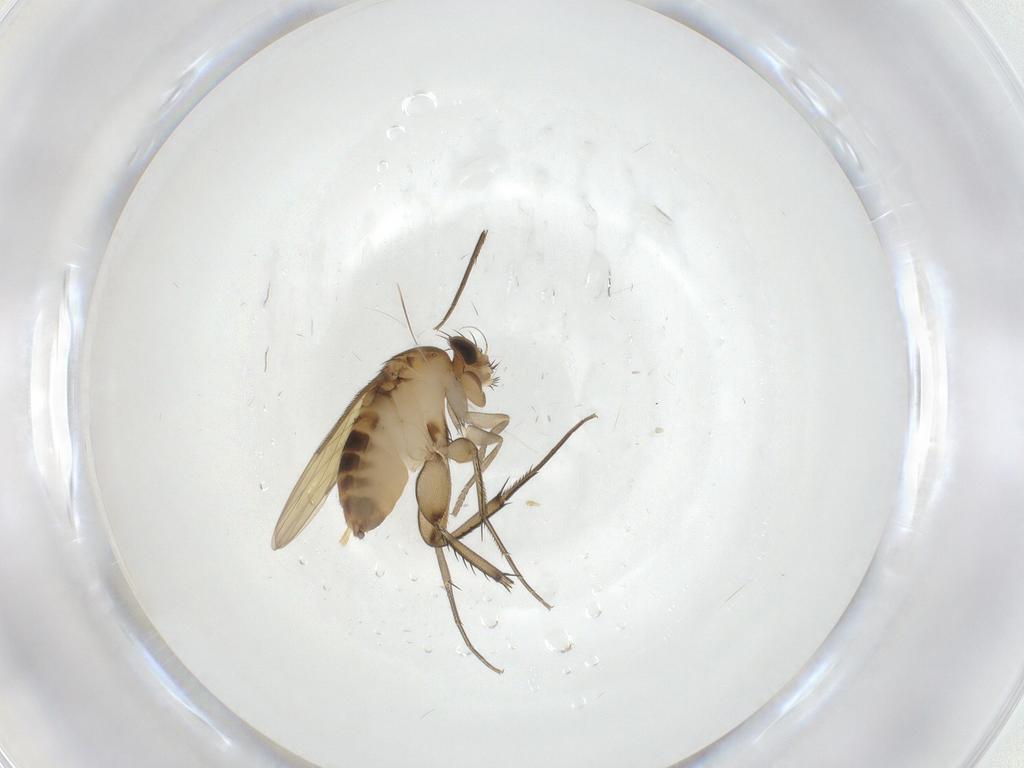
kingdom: Animalia
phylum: Arthropoda
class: Insecta
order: Diptera
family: Phoridae
